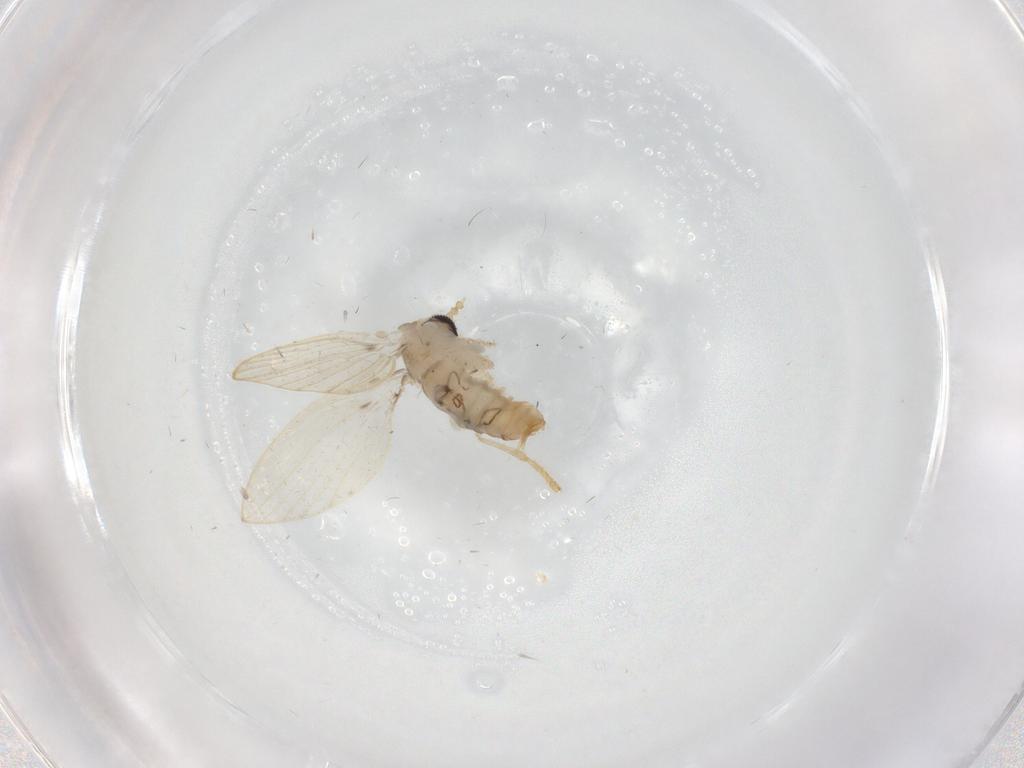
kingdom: Animalia
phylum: Arthropoda
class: Insecta
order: Diptera
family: Psychodidae
